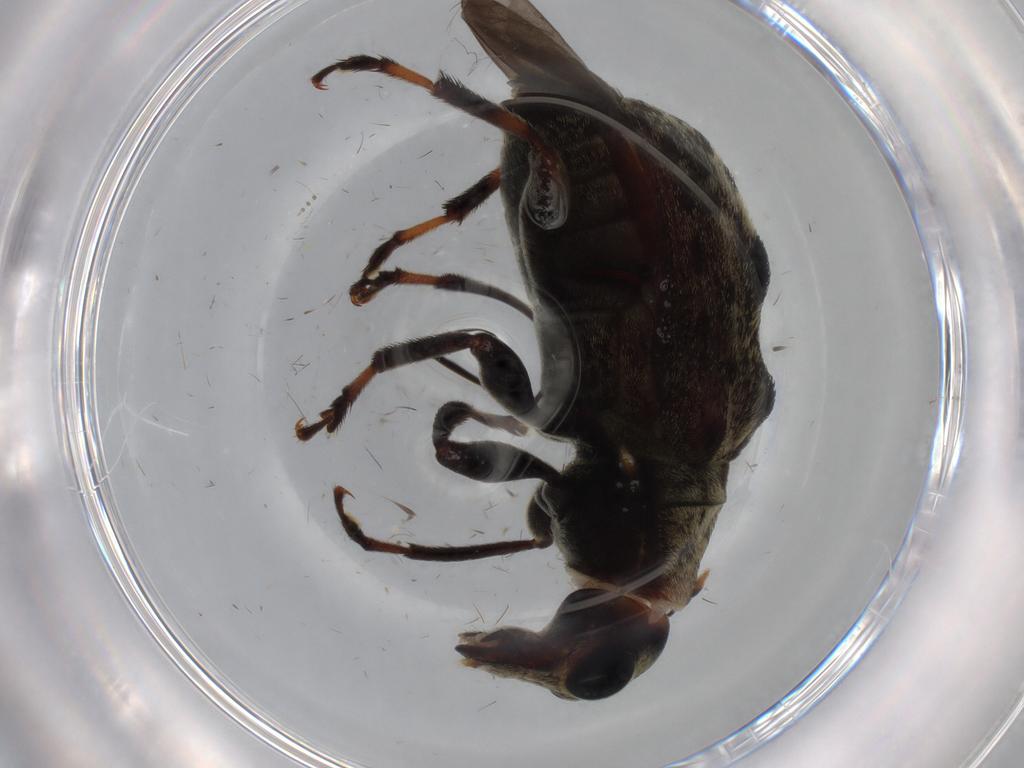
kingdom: Animalia
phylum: Arthropoda
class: Insecta
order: Coleoptera
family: Anthribidae
